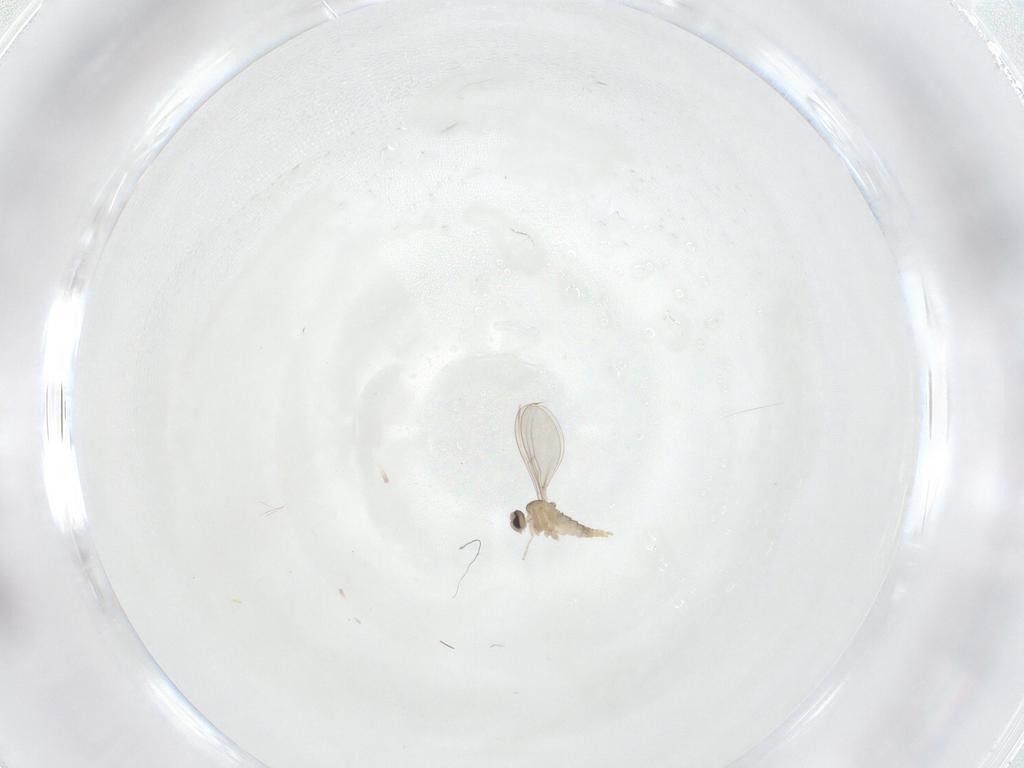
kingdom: Animalia
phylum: Arthropoda
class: Insecta
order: Diptera
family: Cecidomyiidae
